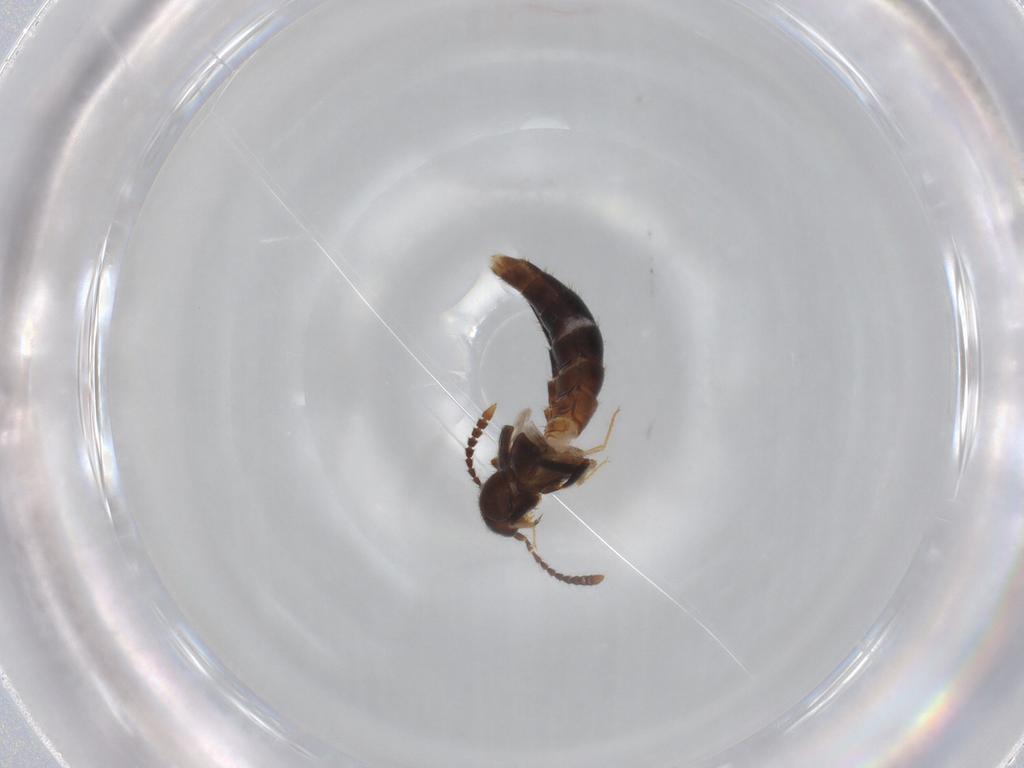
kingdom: Animalia
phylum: Arthropoda
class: Insecta
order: Coleoptera
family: Staphylinidae
